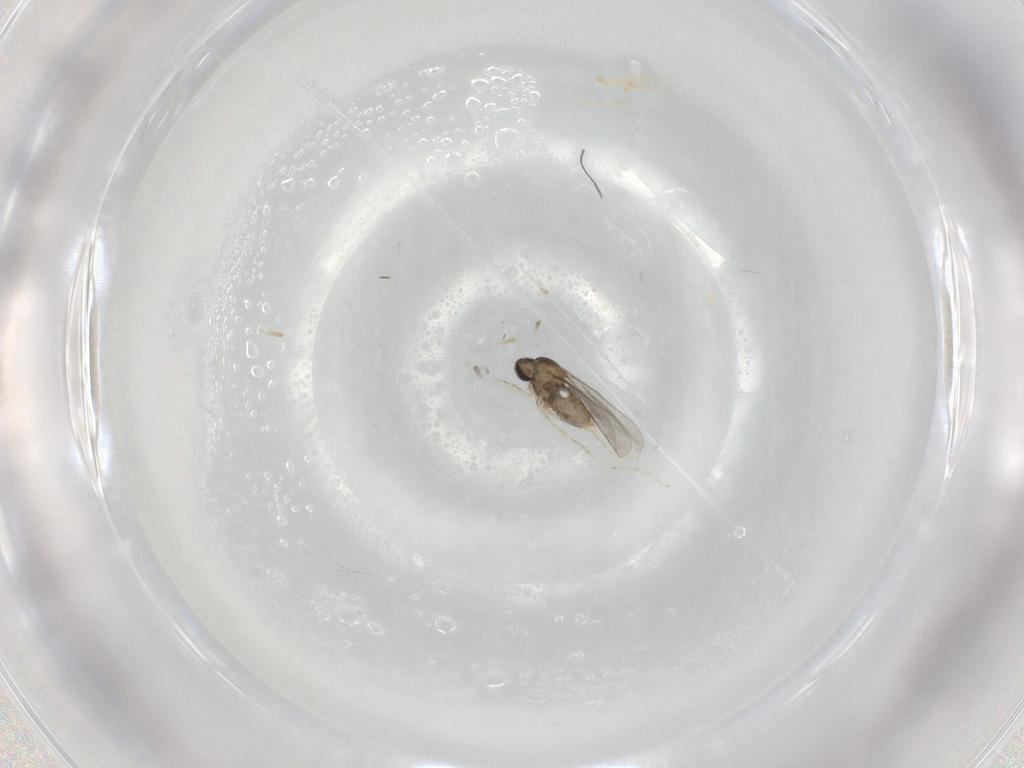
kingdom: Animalia
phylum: Arthropoda
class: Insecta
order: Diptera
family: Cecidomyiidae
